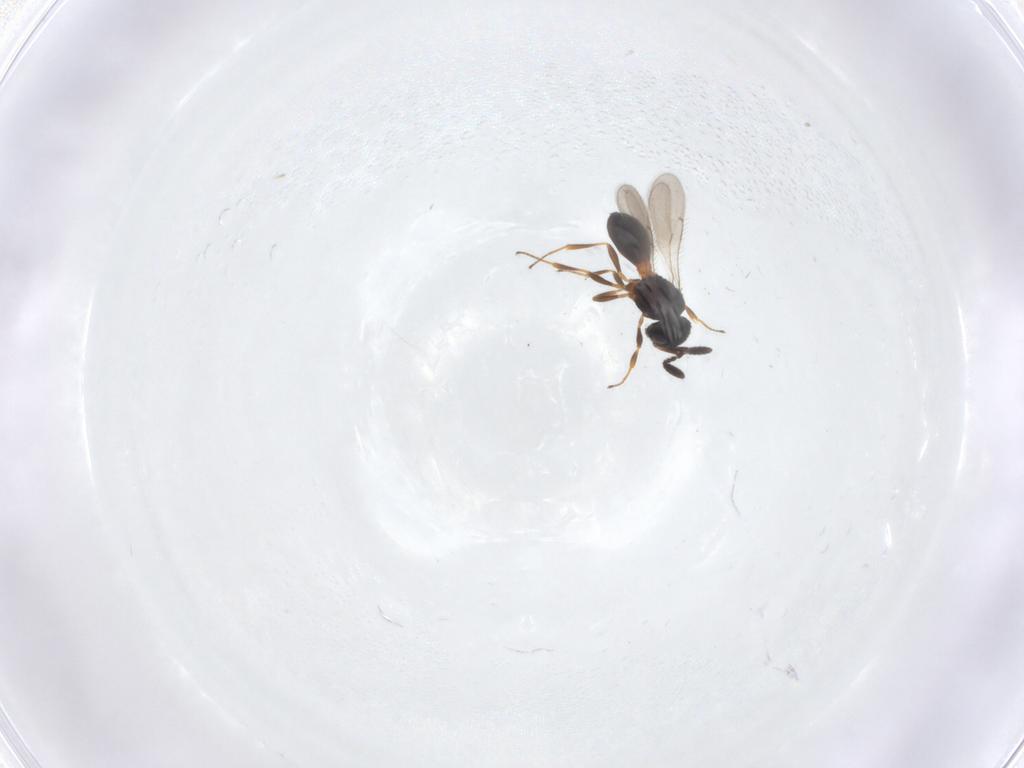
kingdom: Animalia
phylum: Arthropoda
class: Insecta
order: Hymenoptera
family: Scelionidae
